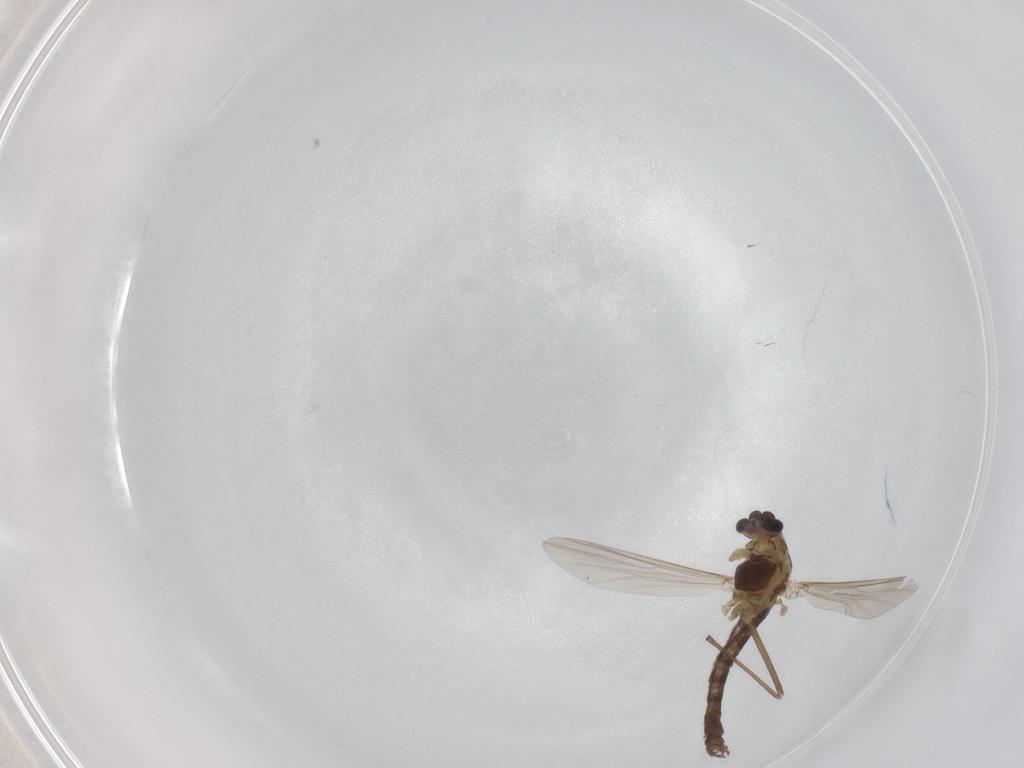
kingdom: Animalia
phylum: Arthropoda
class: Insecta
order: Diptera
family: Chironomidae
